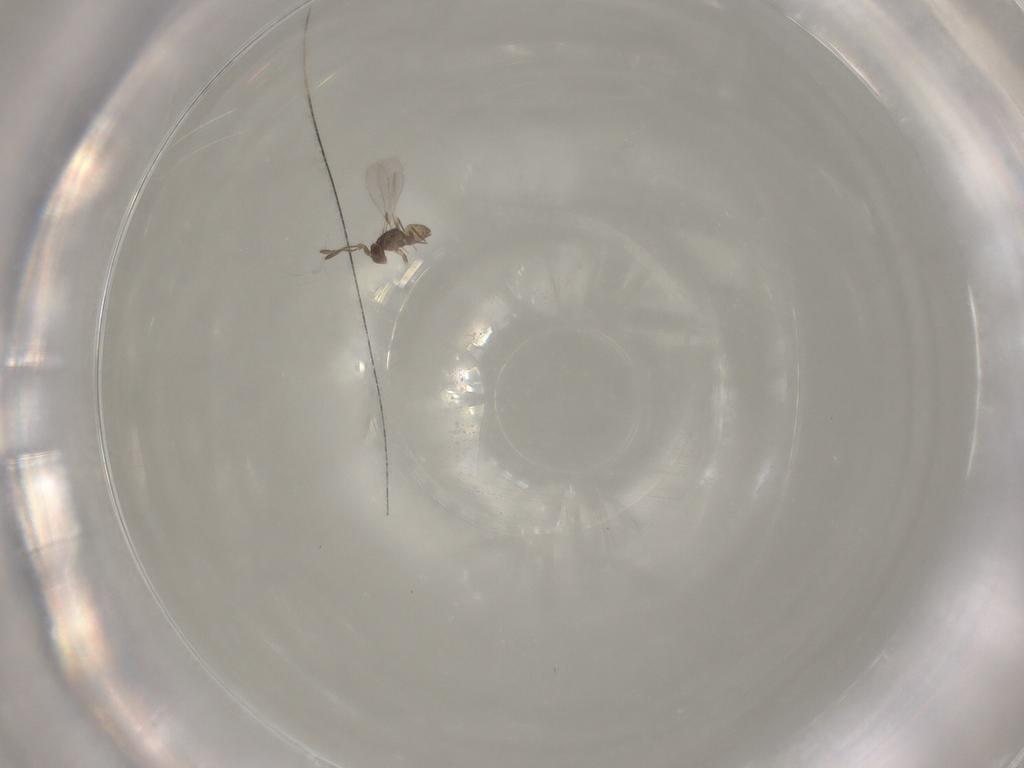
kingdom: Animalia
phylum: Arthropoda
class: Insecta
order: Hymenoptera
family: Mymaridae
